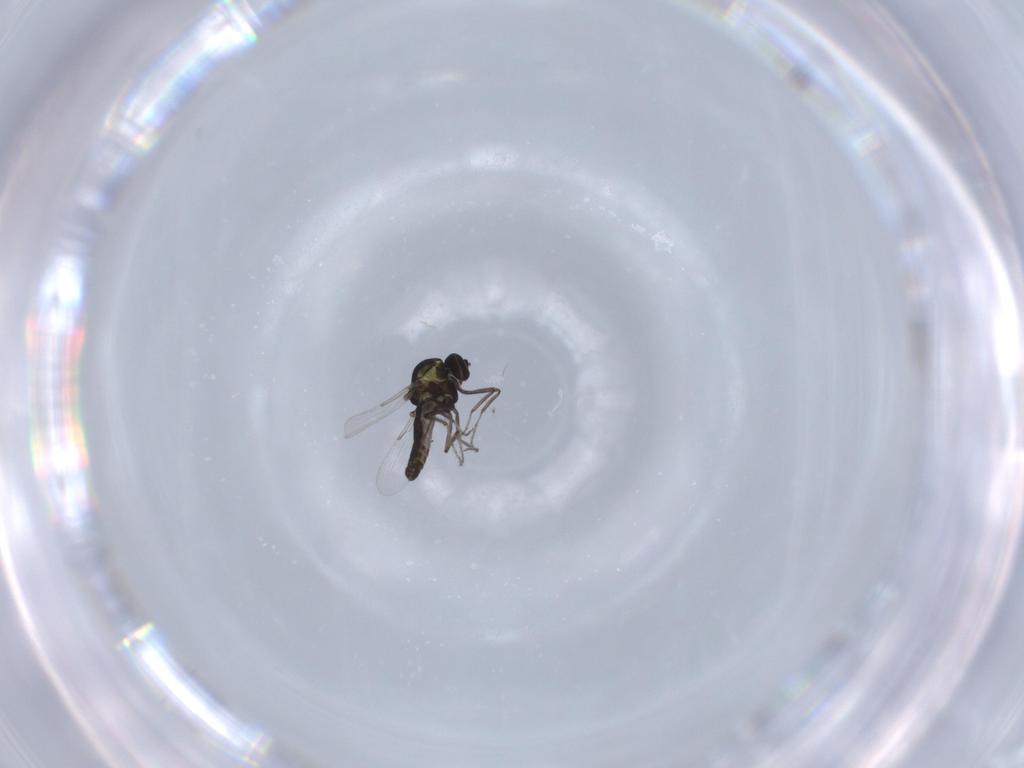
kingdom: Animalia
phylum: Arthropoda
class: Insecta
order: Diptera
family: Ceratopogonidae
